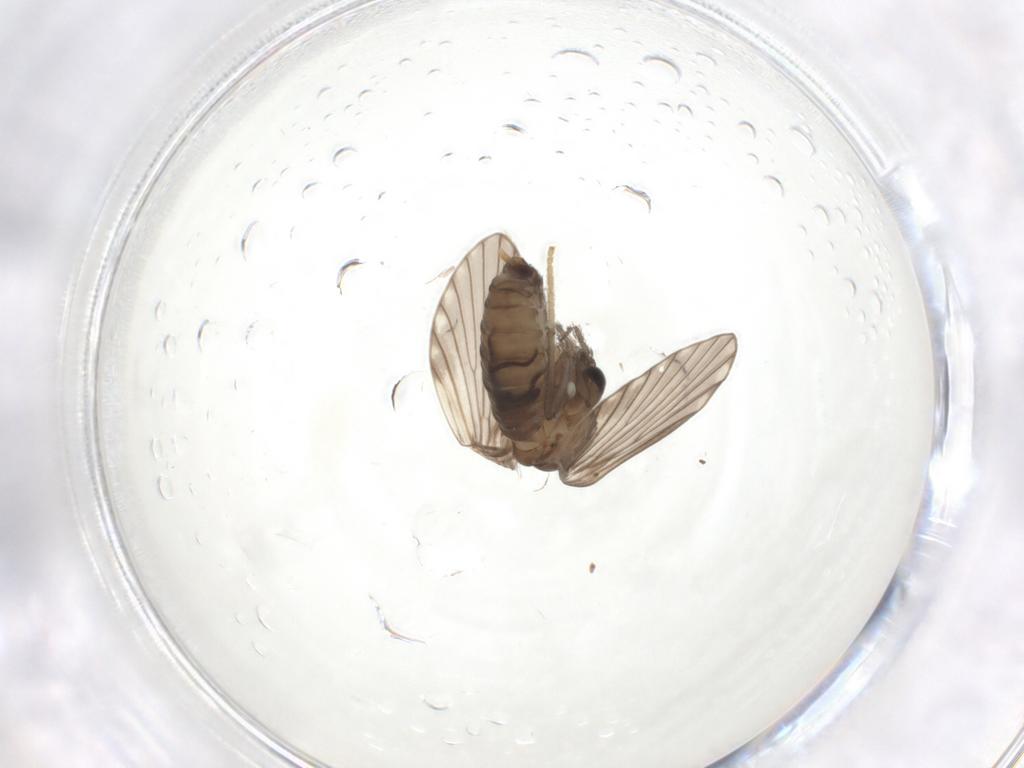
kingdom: Animalia
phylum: Arthropoda
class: Insecta
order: Diptera
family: Psychodidae
